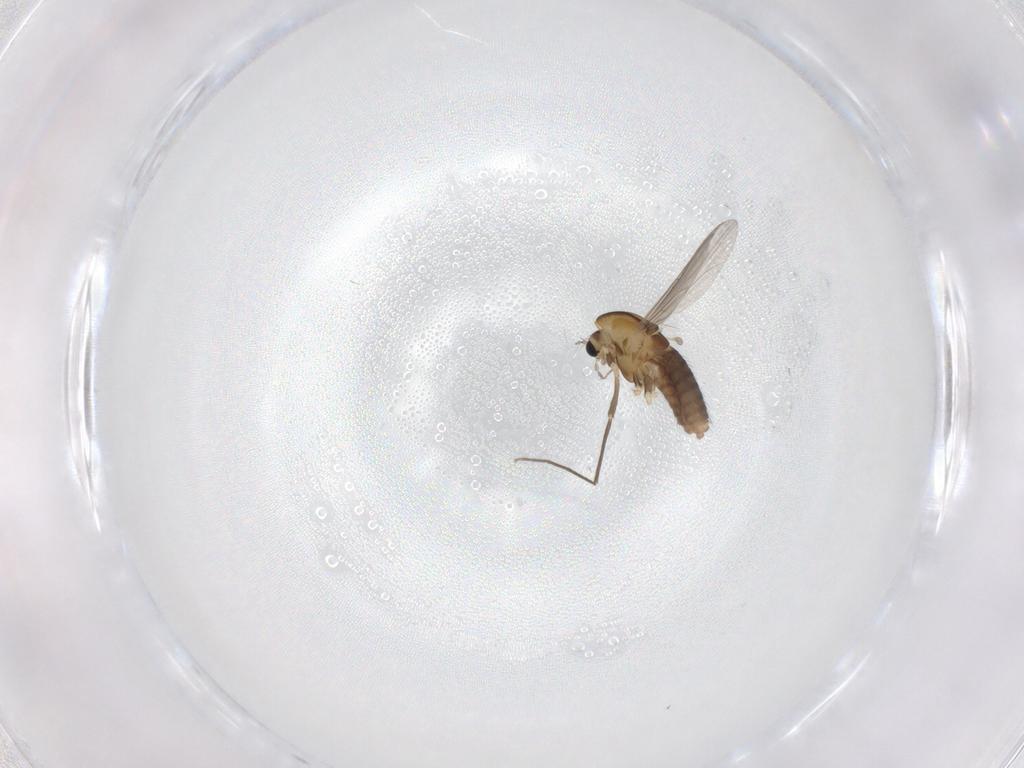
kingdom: Animalia
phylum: Arthropoda
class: Insecta
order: Diptera
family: Chironomidae
